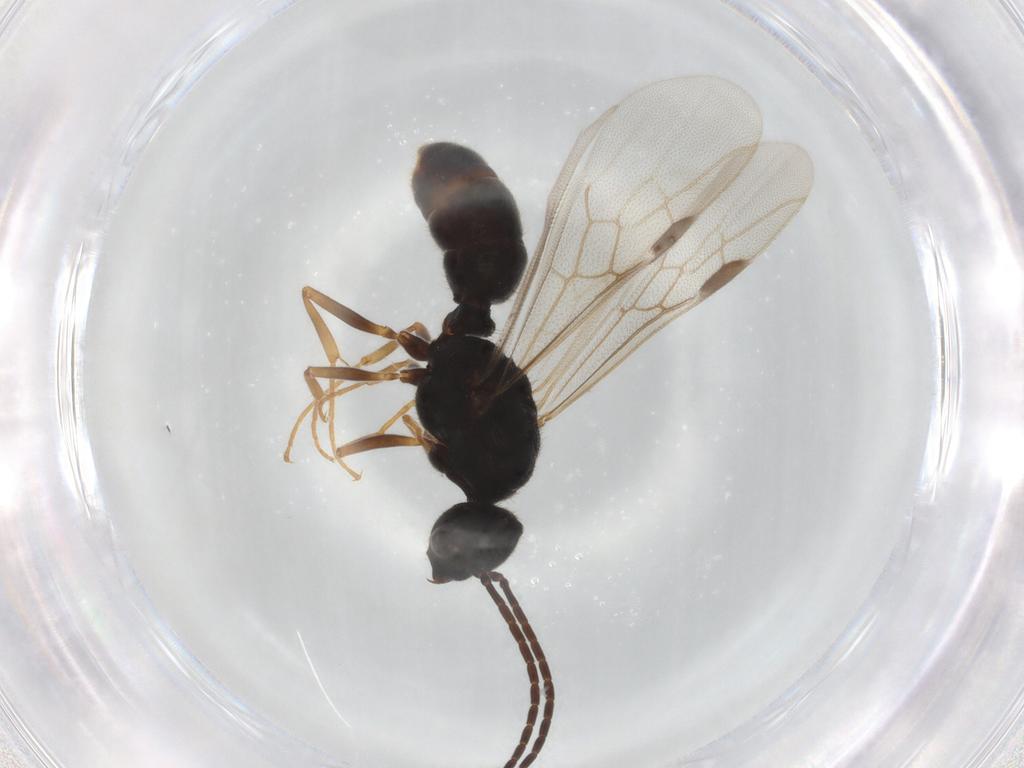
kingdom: Animalia
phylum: Arthropoda
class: Insecta
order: Hymenoptera
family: Formicidae
